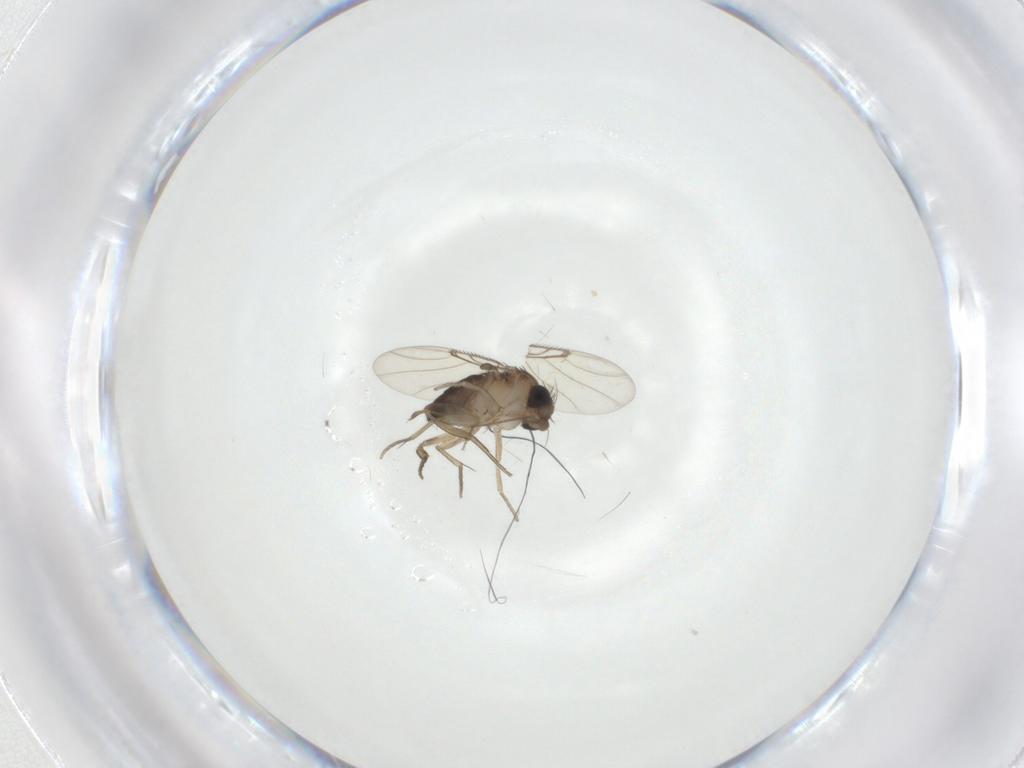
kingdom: Animalia
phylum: Arthropoda
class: Insecta
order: Diptera
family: Chironomidae
